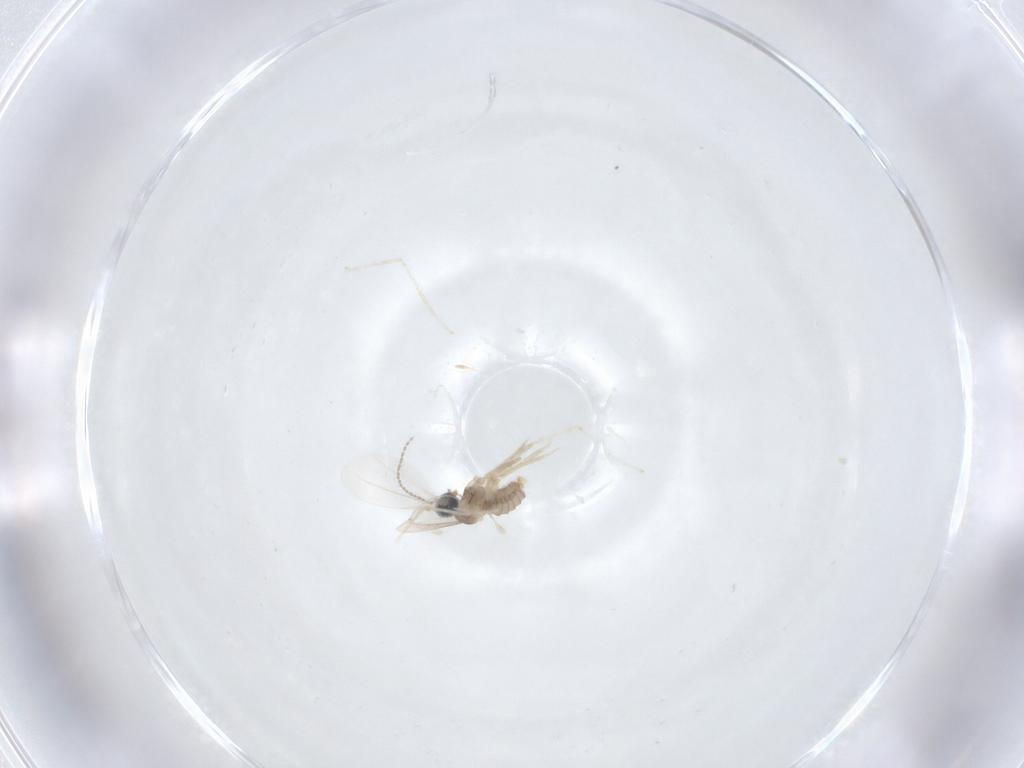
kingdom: Animalia
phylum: Arthropoda
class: Insecta
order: Diptera
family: Cecidomyiidae
